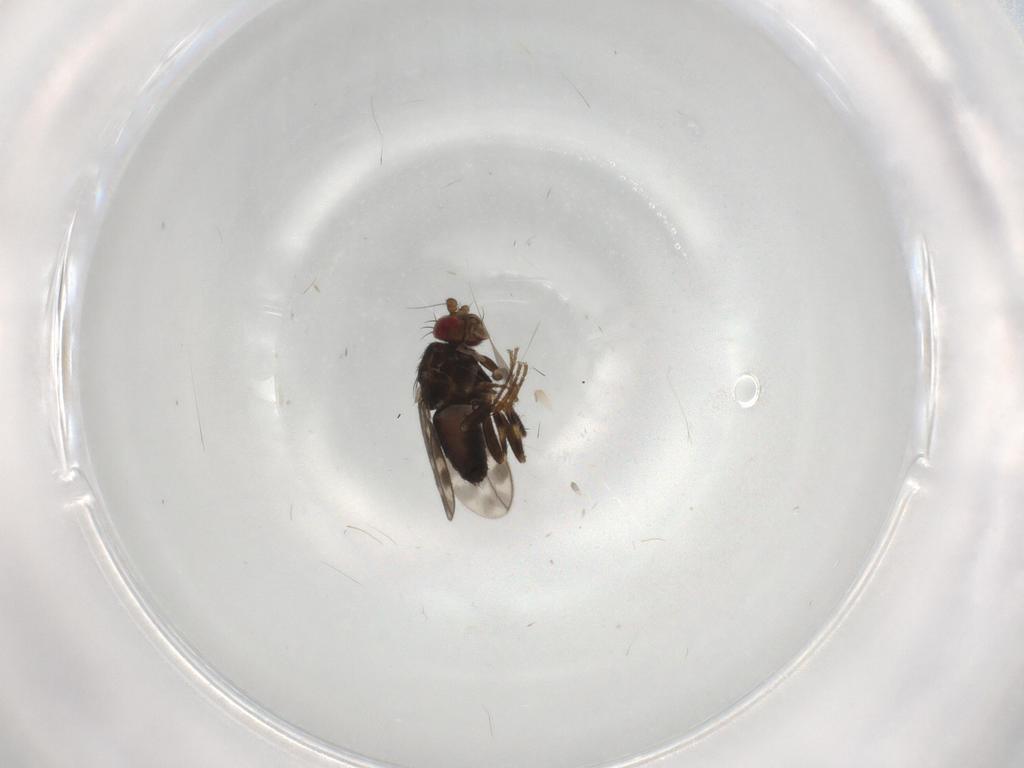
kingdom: Animalia
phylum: Arthropoda
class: Insecta
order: Diptera
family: Sphaeroceridae
